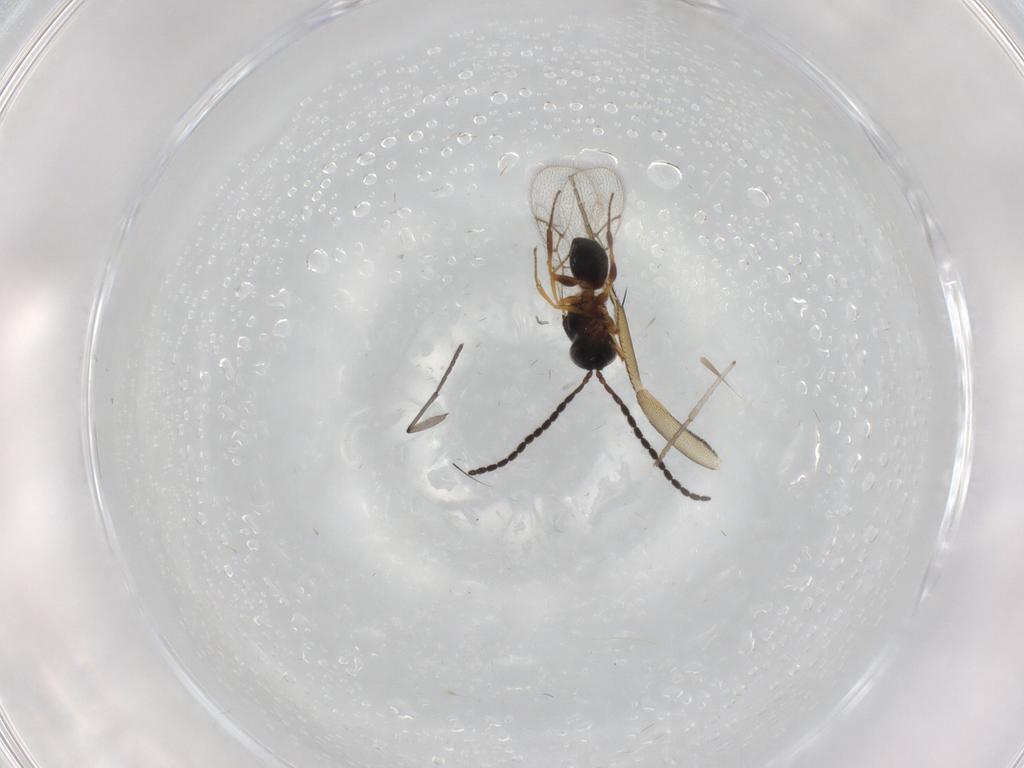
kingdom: Animalia
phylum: Arthropoda
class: Insecta
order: Hymenoptera
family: Figitidae
